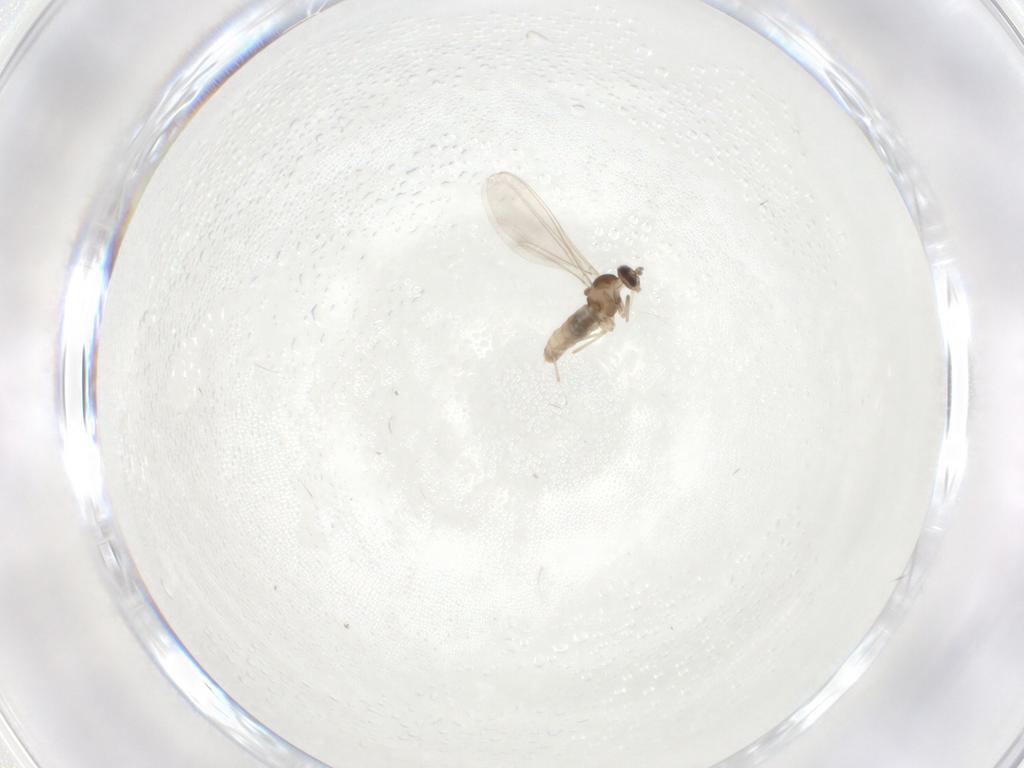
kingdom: Animalia
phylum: Arthropoda
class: Insecta
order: Diptera
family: Cecidomyiidae
